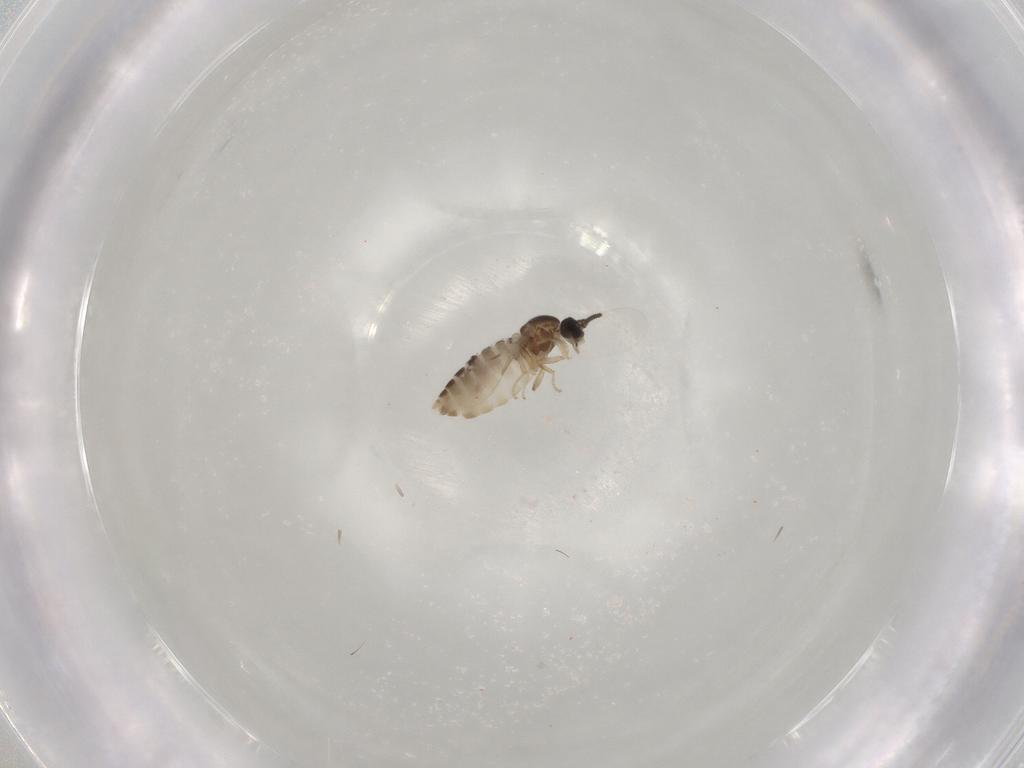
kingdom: Animalia
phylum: Arthropoda
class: Insecta
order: Diptera
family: Scatopsidae
